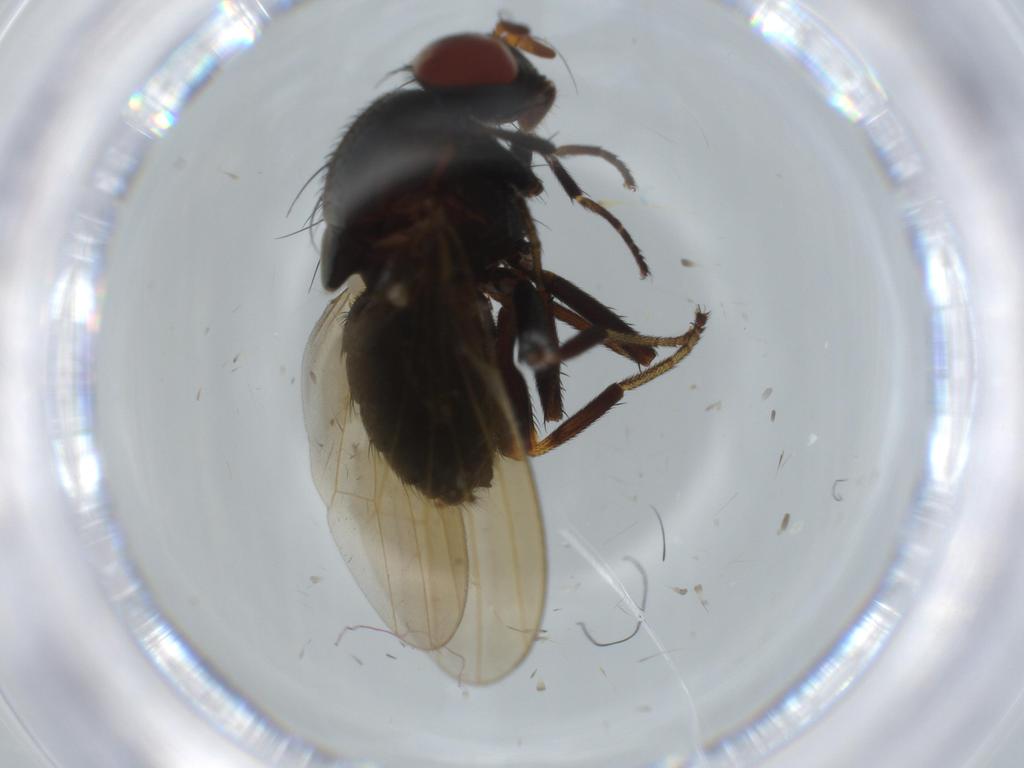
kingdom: Animalia
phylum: Arthropoda
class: Insecta
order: Diptera
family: Lauxaniidae
